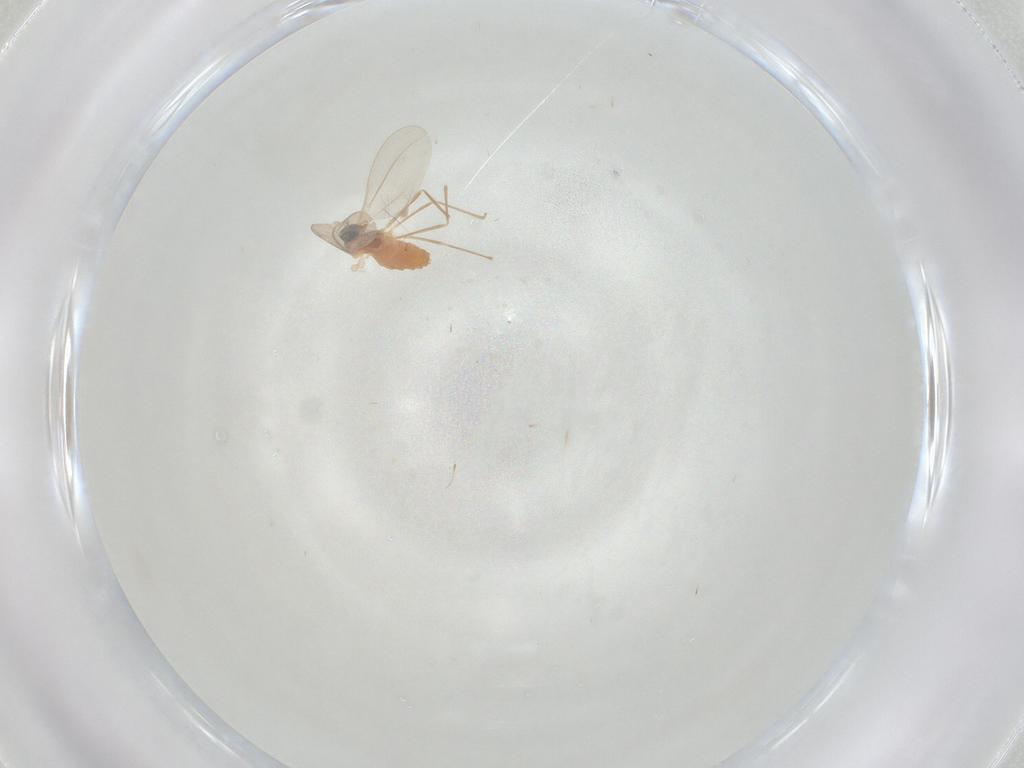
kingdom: Animalia
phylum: Arthropoda
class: Insecta
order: Diptera
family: Cecidomyiidae
